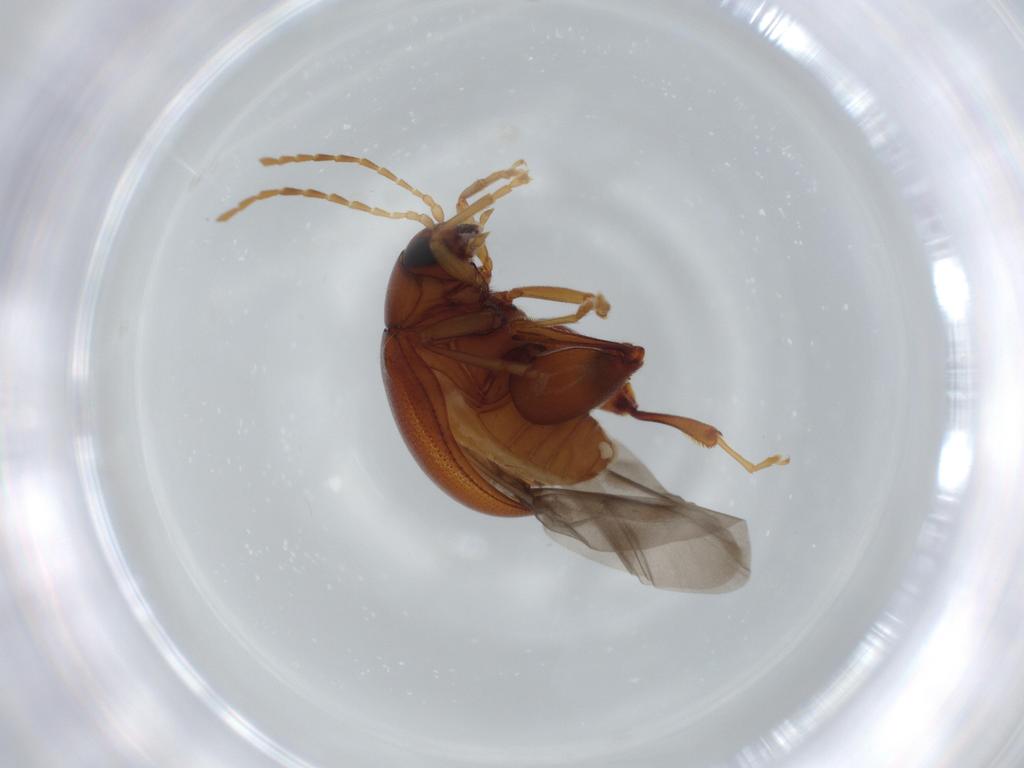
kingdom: Animalia
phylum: Arthropoda
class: Insecta
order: Coleoptera
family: Chrysomelidae
